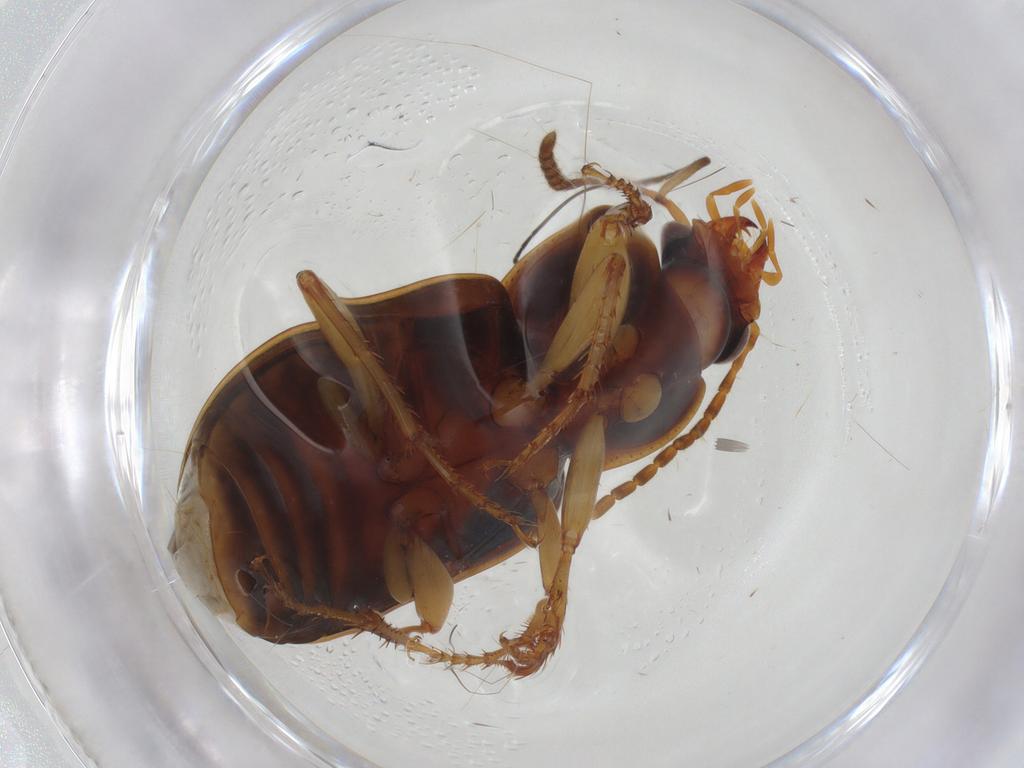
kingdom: Animalia
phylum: Arthropoda
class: Insecta
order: Coleoptera
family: Carabidae
